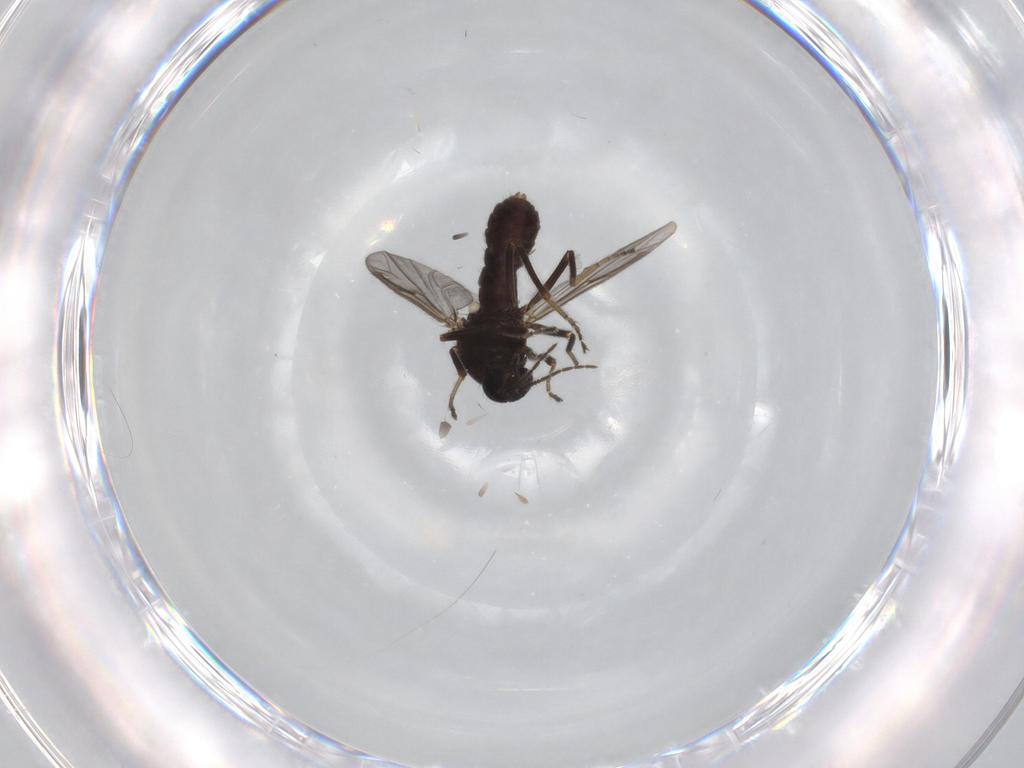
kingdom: Animalia
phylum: Arthropoda
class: Insecta
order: Diptera
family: Ceratopogonidae
